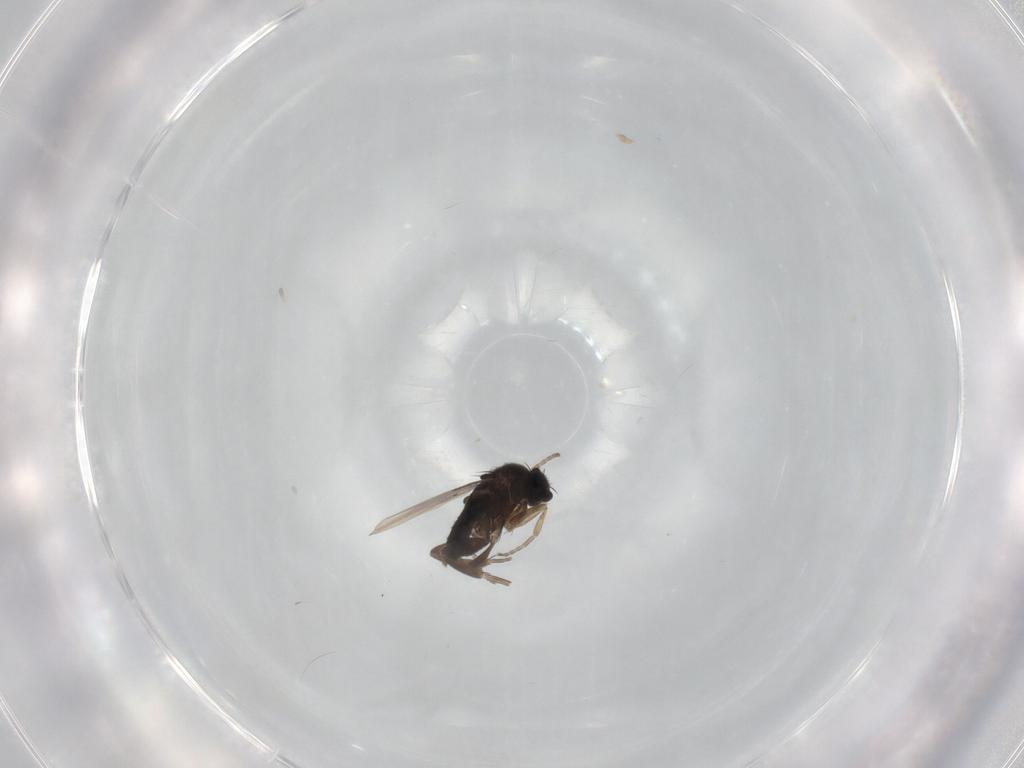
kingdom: Animalia
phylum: Arthropoda
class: Insecta
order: Diptera
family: Phoridae
